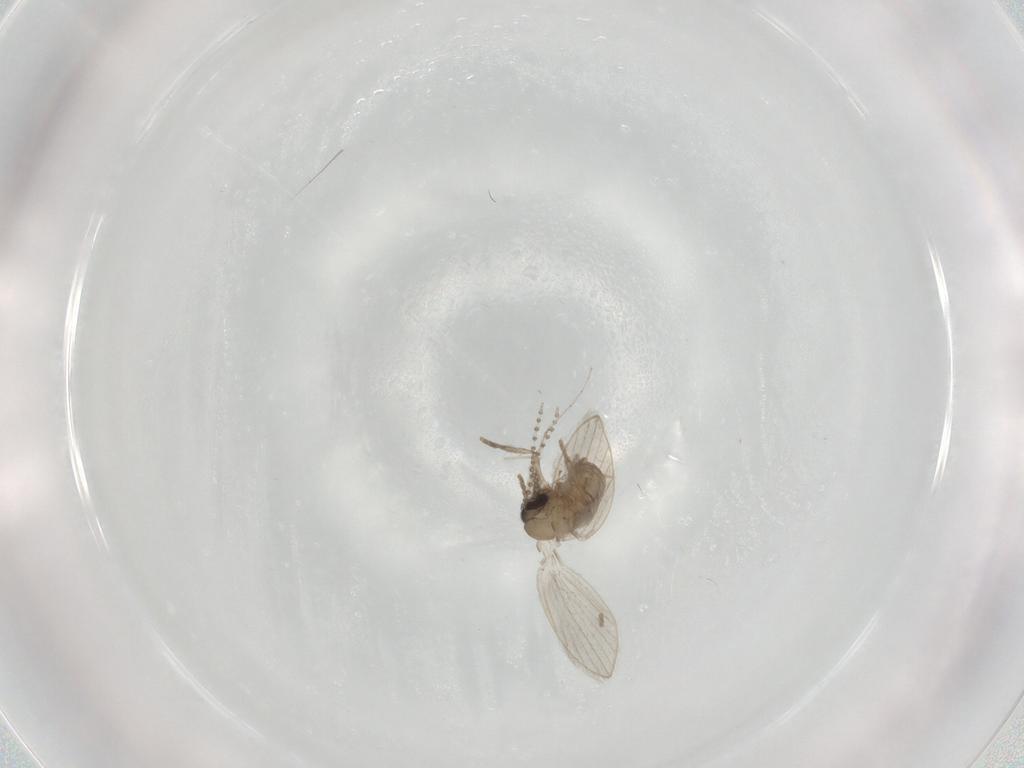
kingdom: Animalia
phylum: Arthropoda
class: Insecta
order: Diptera
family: Psychodidae
